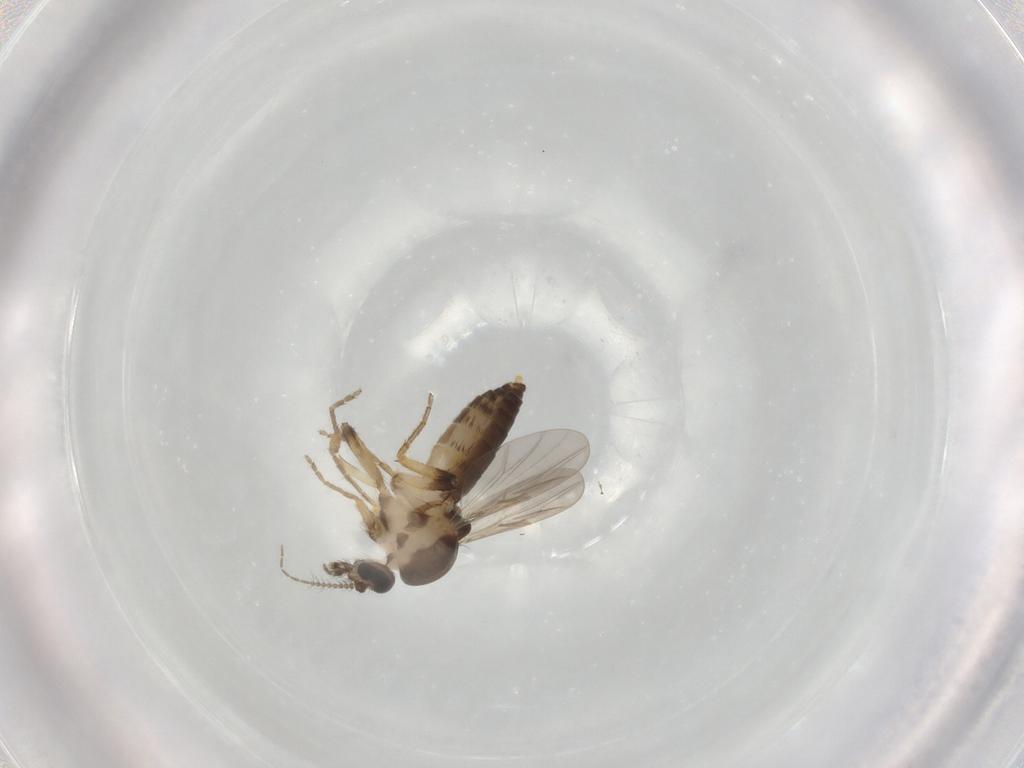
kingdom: Animalia
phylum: Arthropoda
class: Insecta
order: Diptera
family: Ceratopogonidae
